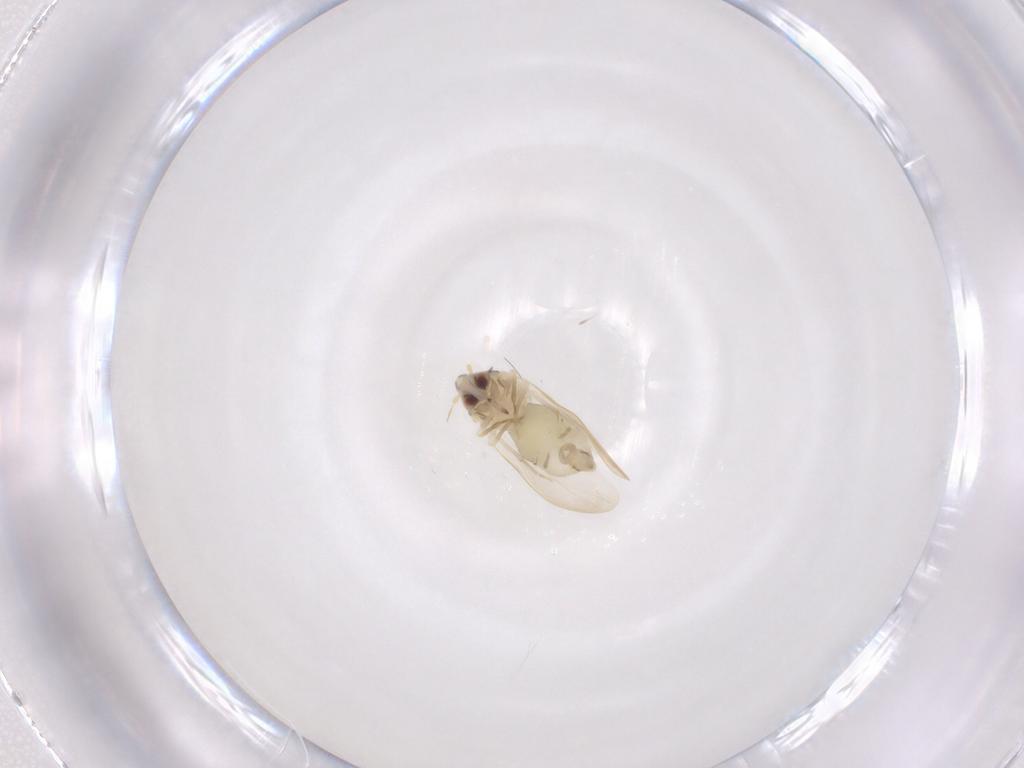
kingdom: Animalia
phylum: Arthropoda
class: Insecta
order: Hemiptera
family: Aleyrodidae
